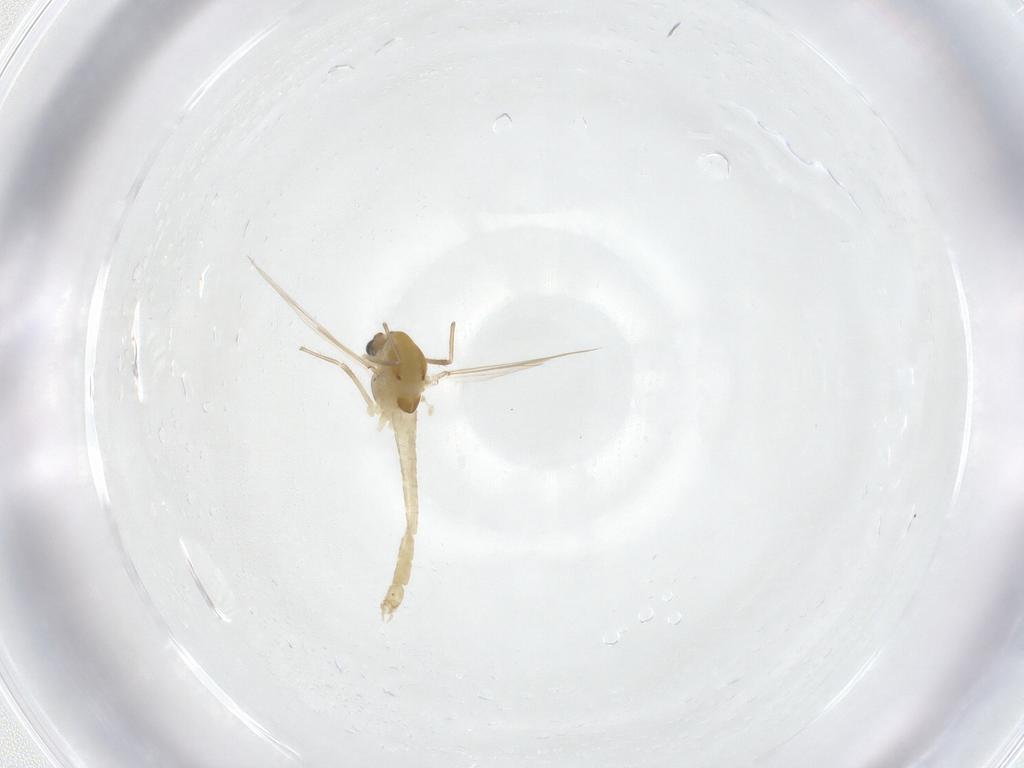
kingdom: Animalia
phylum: Arthropoda
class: Insecta
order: Diptera
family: Chironomidae
